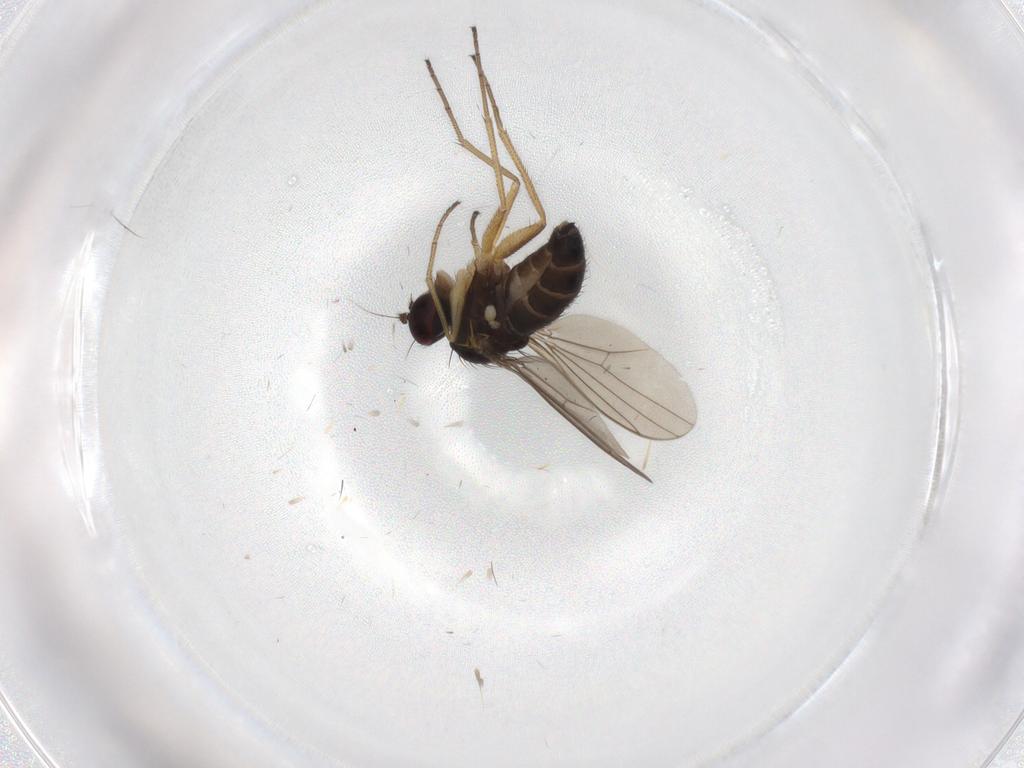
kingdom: Animalia
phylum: Arthropoda
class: Insecta
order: Diptera
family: Dolichopodidae
